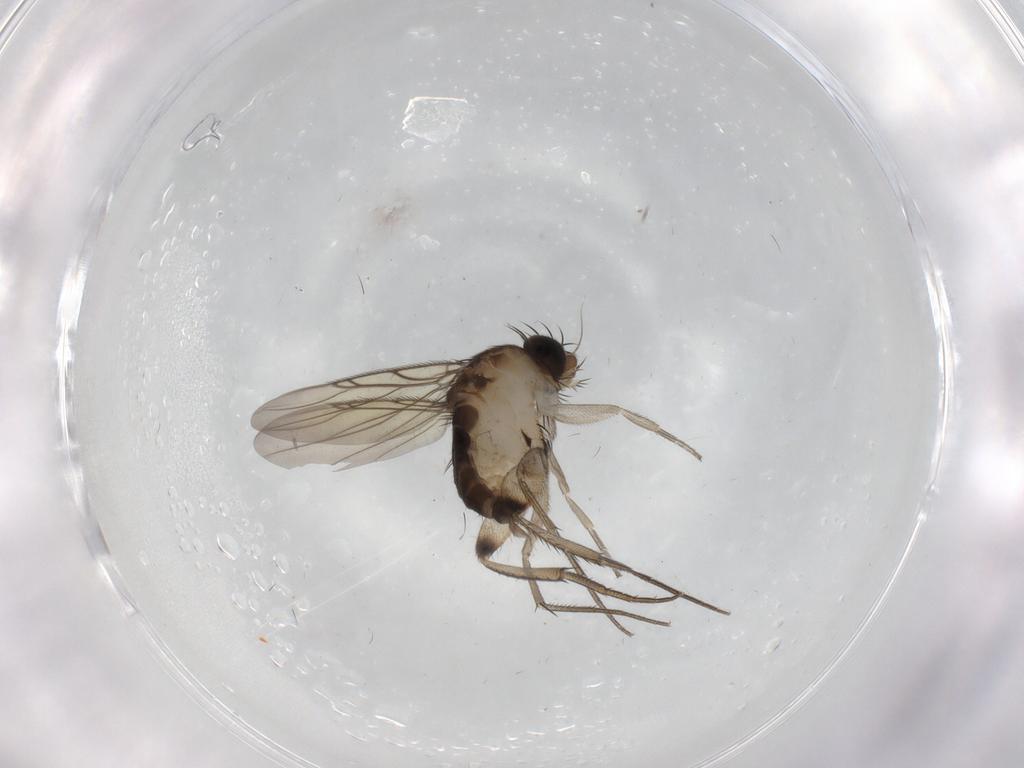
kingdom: Animalia
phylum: Arthropoda
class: Insecta
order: Diptera
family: Phoridae
